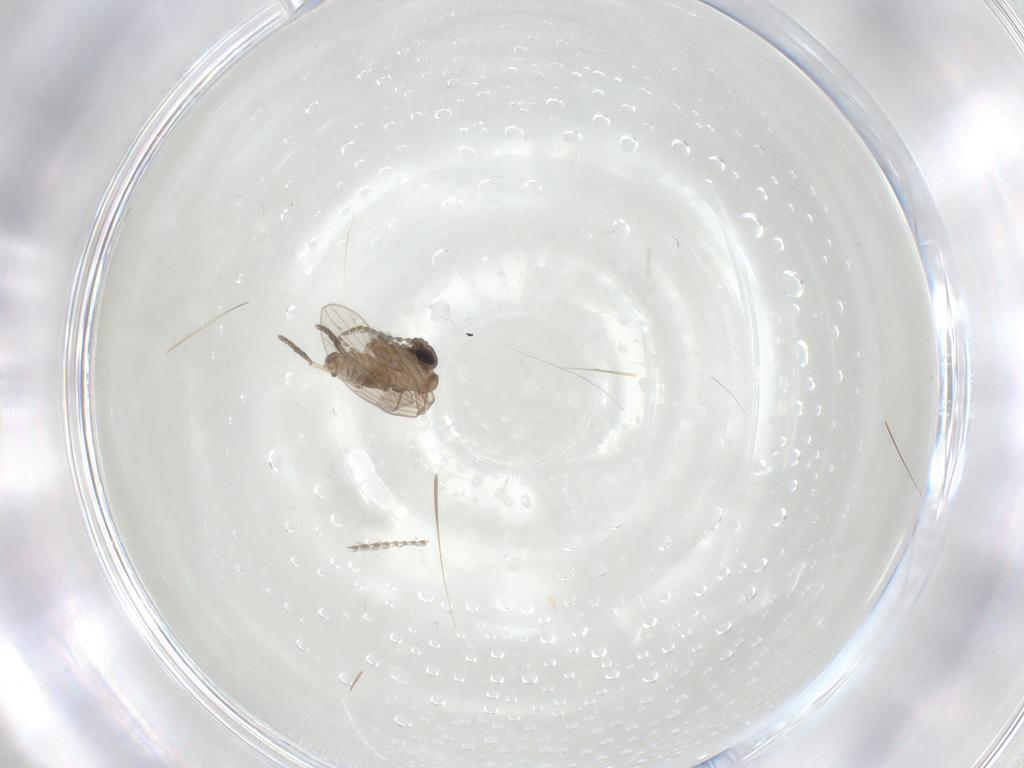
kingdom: Animalia
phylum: Arthropoda
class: Insecta
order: Diptera
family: Psychodidae
